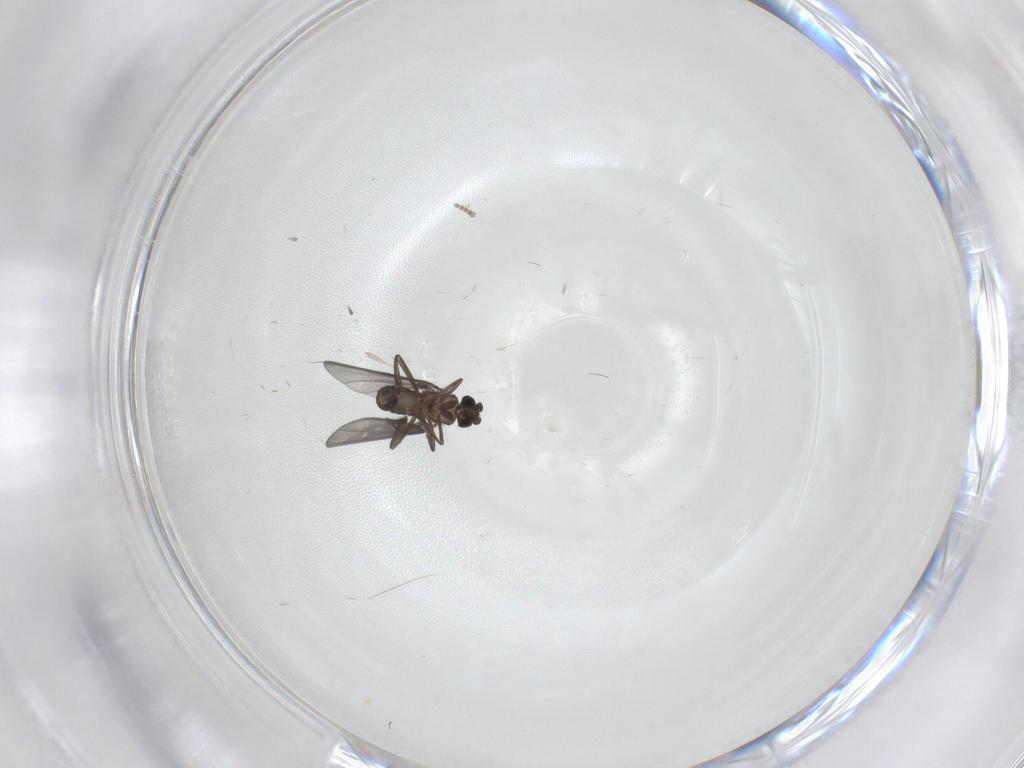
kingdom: Animalia
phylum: Arthropoda
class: Insecta
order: Diptera
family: Phoridae
